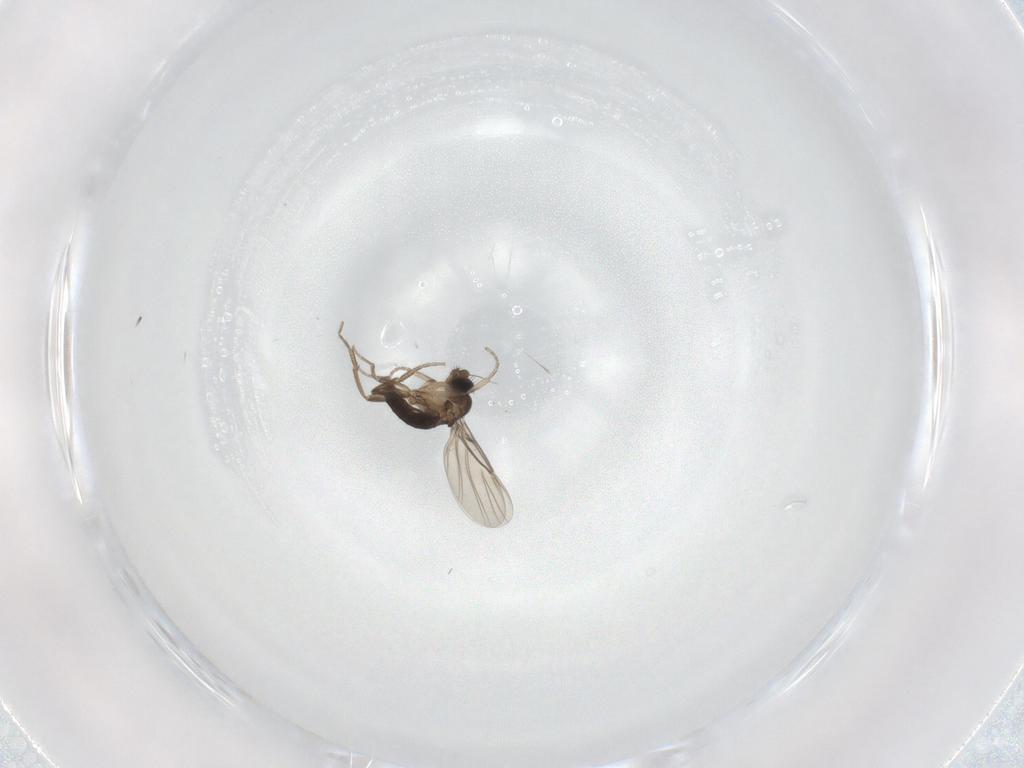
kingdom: Animalia
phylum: Arthropoda
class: Insecta
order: Diptera
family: Cecidomyiidae
